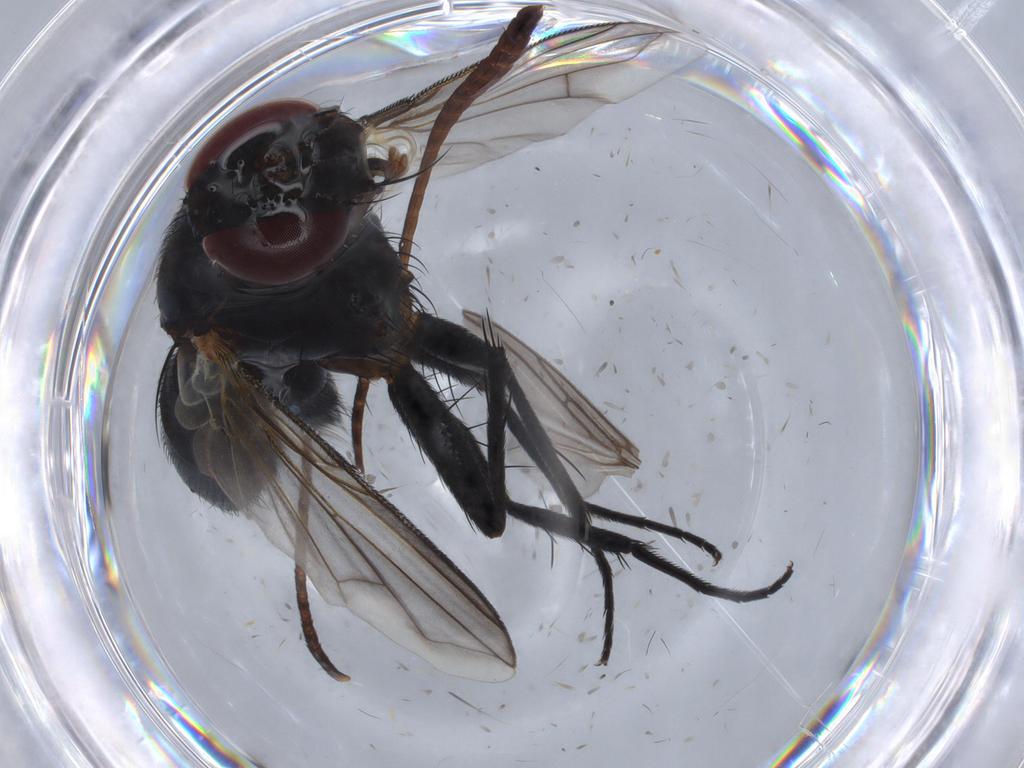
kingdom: Animalia
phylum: Arthropoda
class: Insecta
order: Diptera
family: Tachinidae
